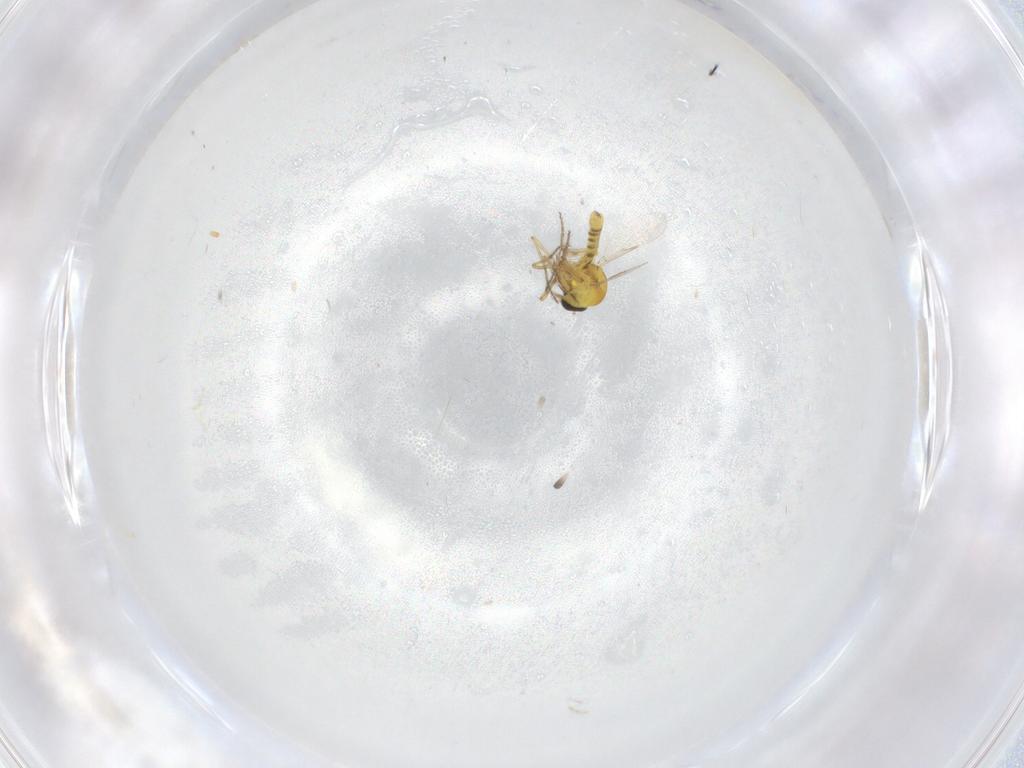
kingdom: Animalia
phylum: Arthropoda
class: Insecta
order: Diptera
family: Ceratopogonidae
